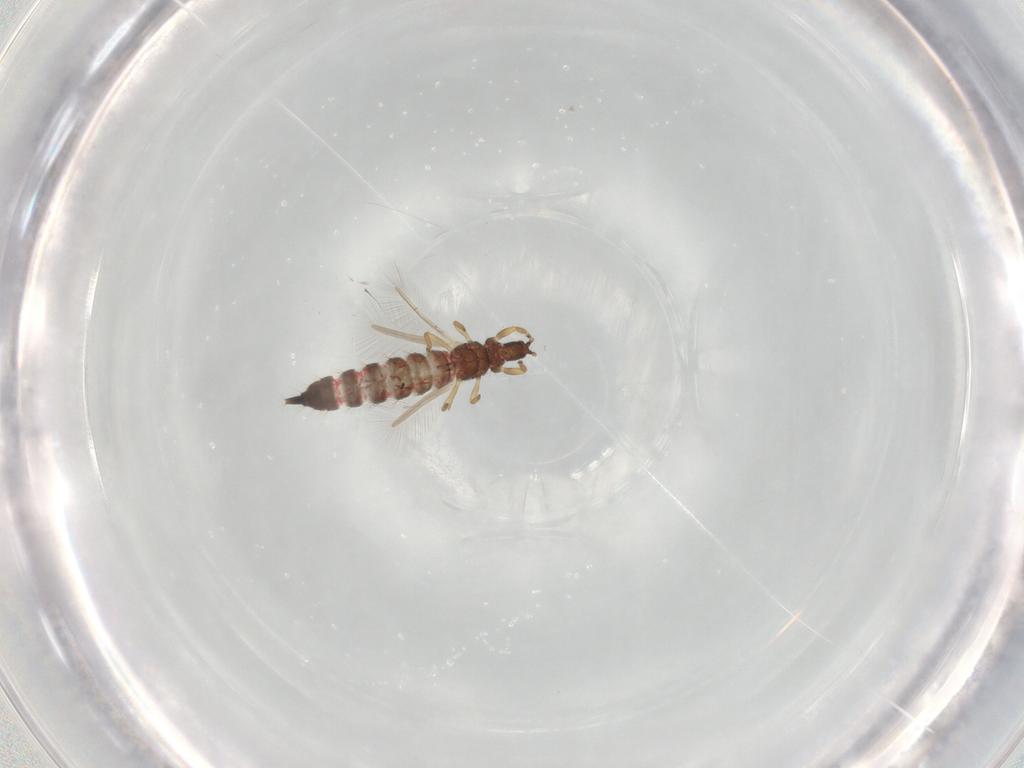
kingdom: Animalia
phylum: Arthropoda
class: Insecta
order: Thysanoptera
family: Phlaeothripidae
